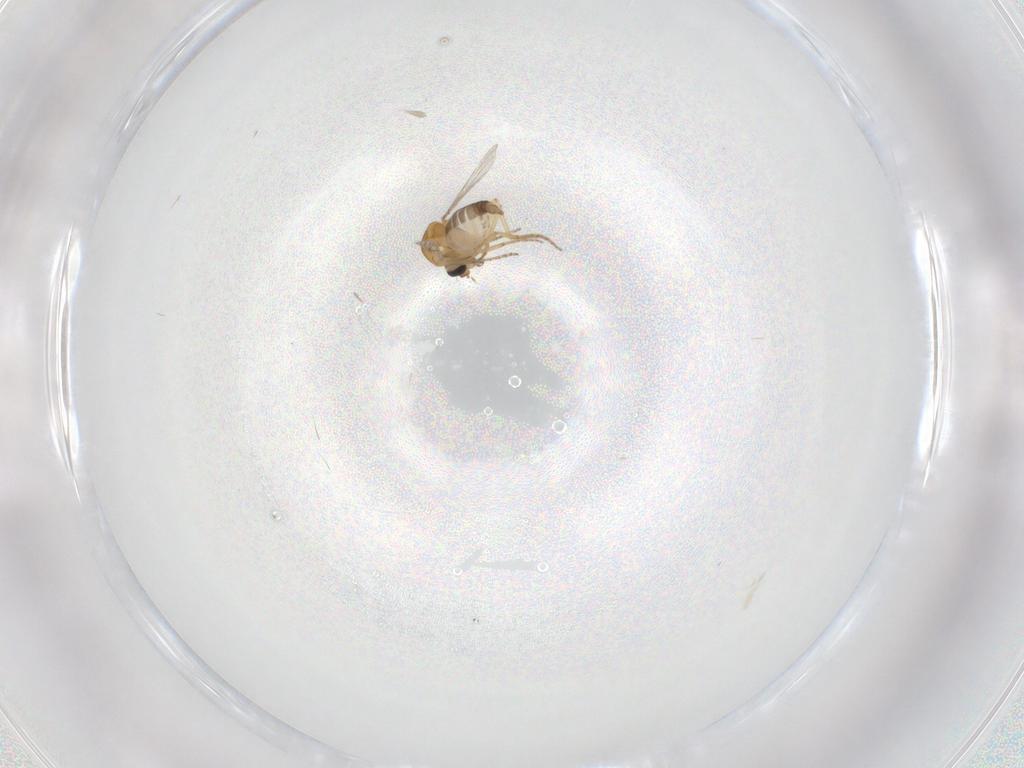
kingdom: Animalia
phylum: Arthropoda
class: Insecta
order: Diptera
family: Ceratopogonidae
